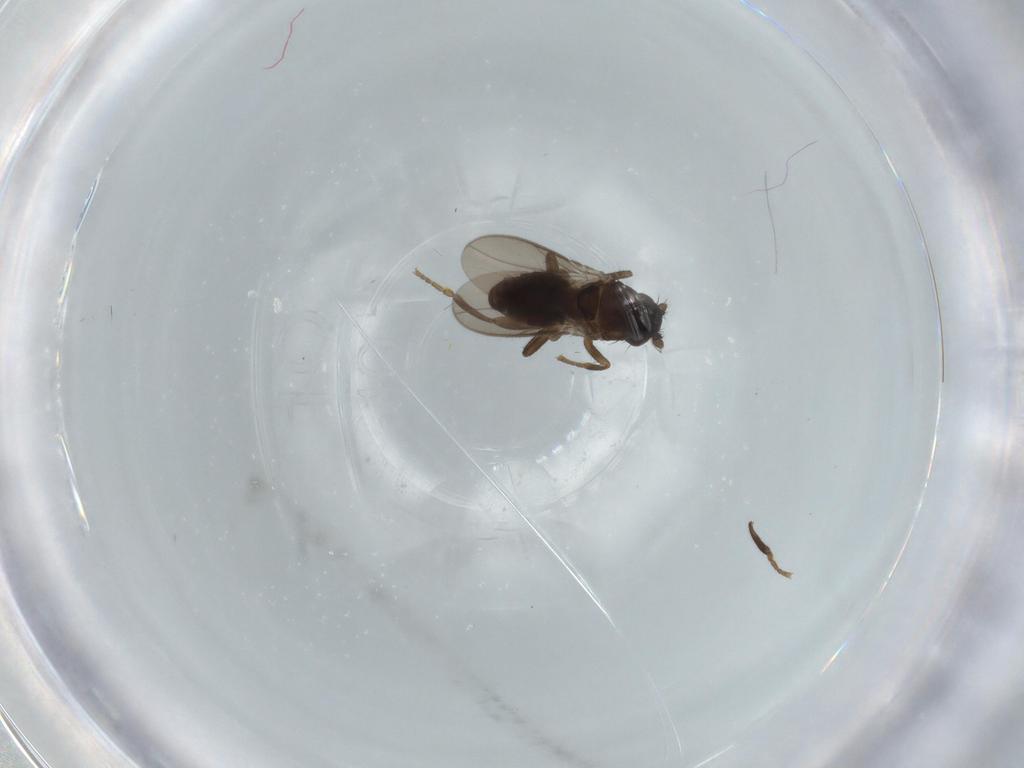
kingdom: Animalia
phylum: Arthropoda
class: Insecta
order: Diptera
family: Sphaeroceridae
